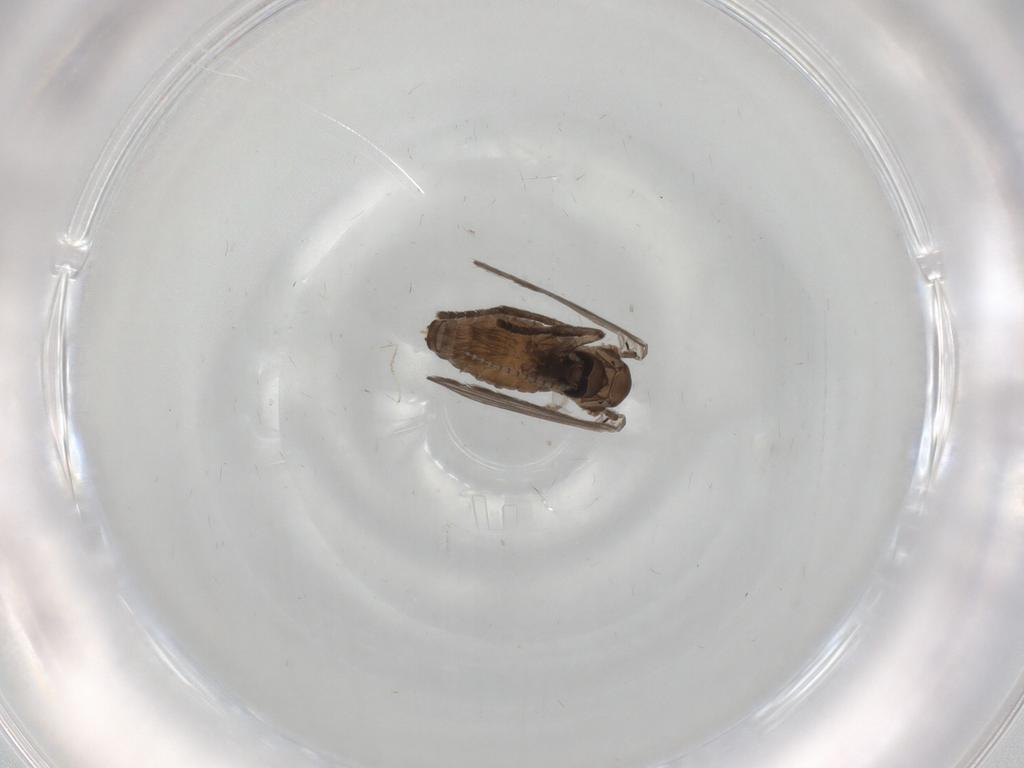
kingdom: Animalia
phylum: Arthropoda
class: Insecta
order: Diptera
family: Psychodidae
